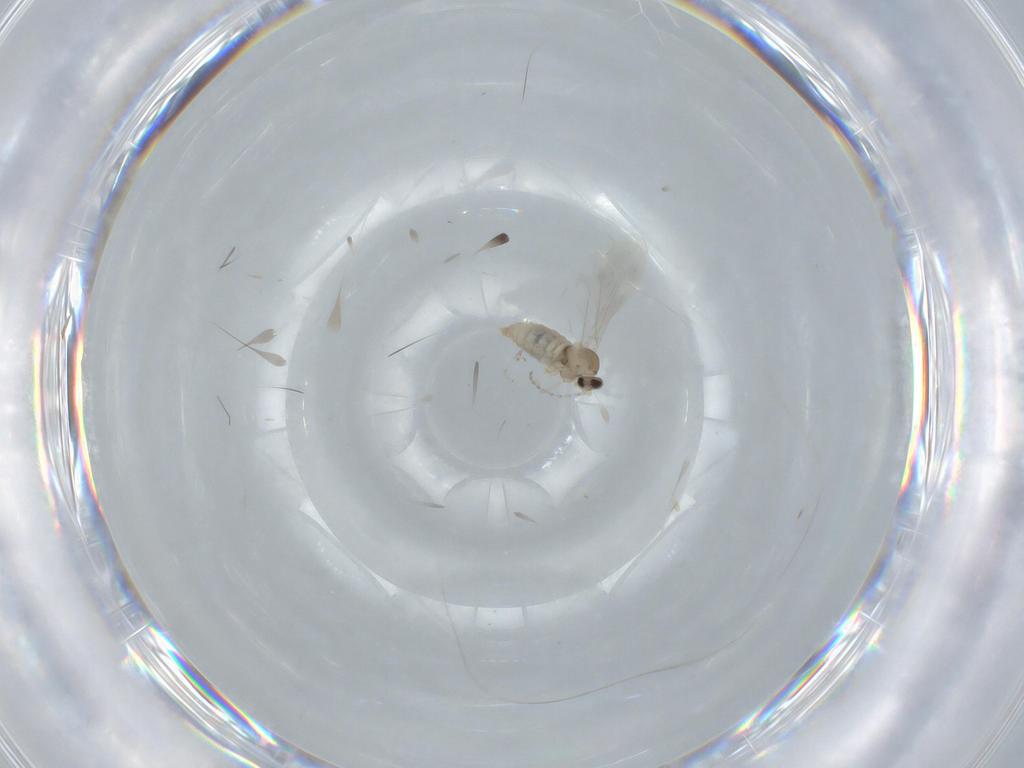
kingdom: Animalia
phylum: Arthropoda
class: Insecta
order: Diptera
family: Cecidomyiidae
